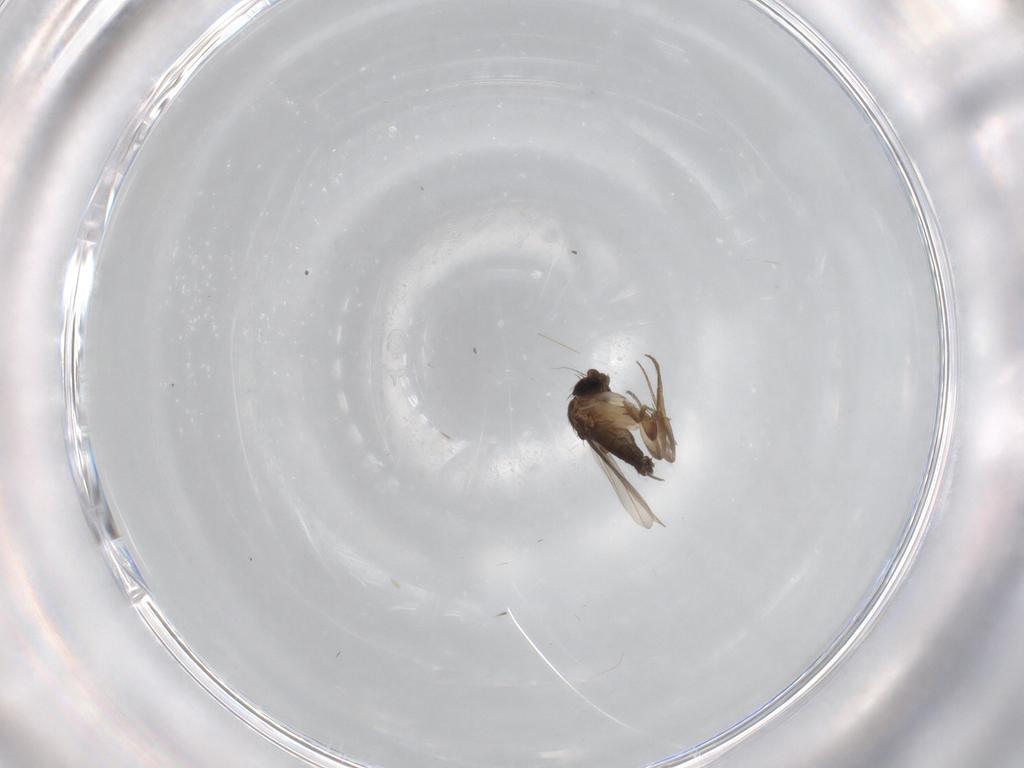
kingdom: Animalia
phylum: Arthropoda
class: Insecta
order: Diptera
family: Phoridae
